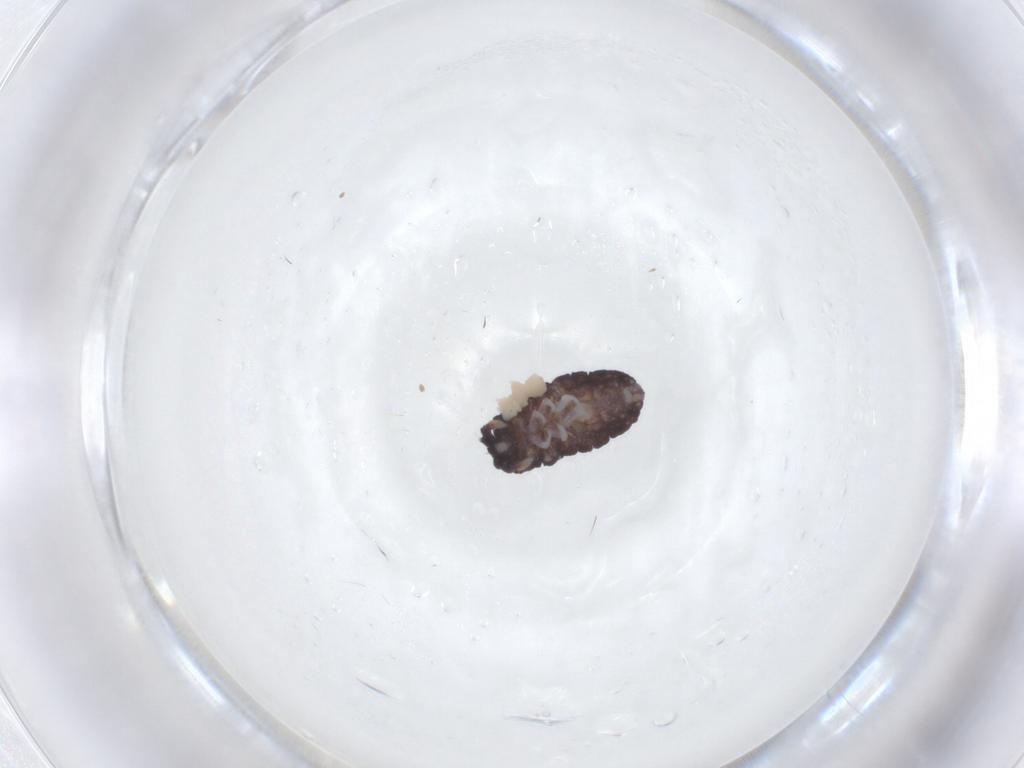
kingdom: Animalia
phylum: Arthropoda
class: Collembola
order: Poduromorpha
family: Neanuridae
